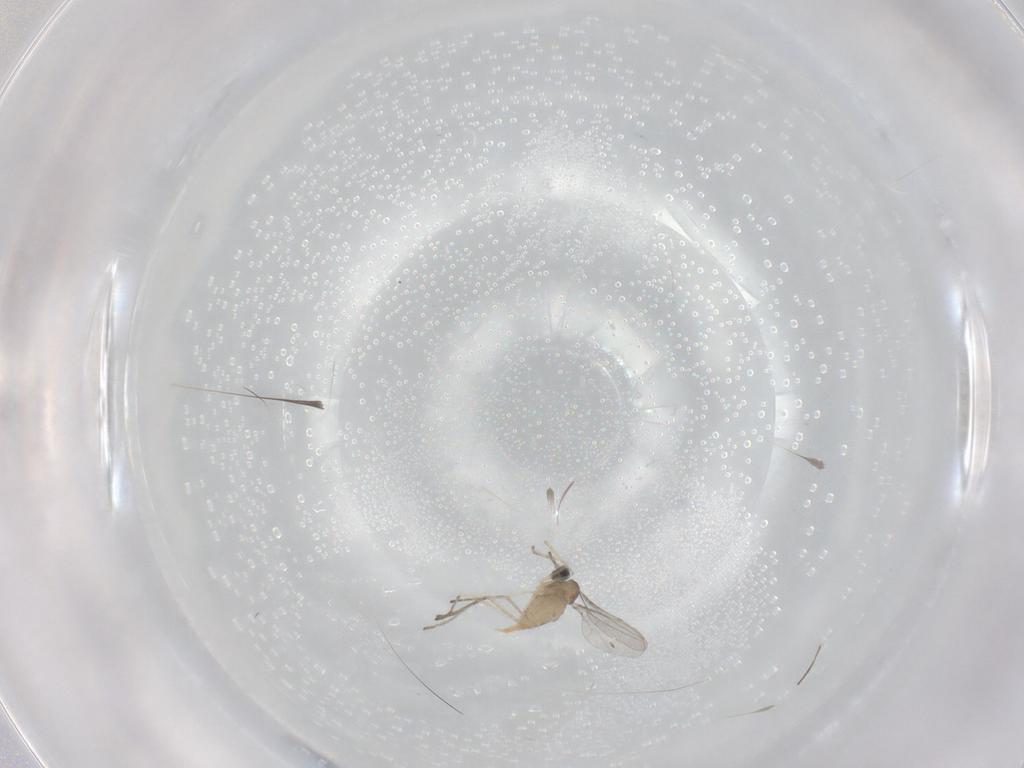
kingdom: Animalia
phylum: Arthropoda
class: Insecta
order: Diptera
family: Cecidomyiidae
